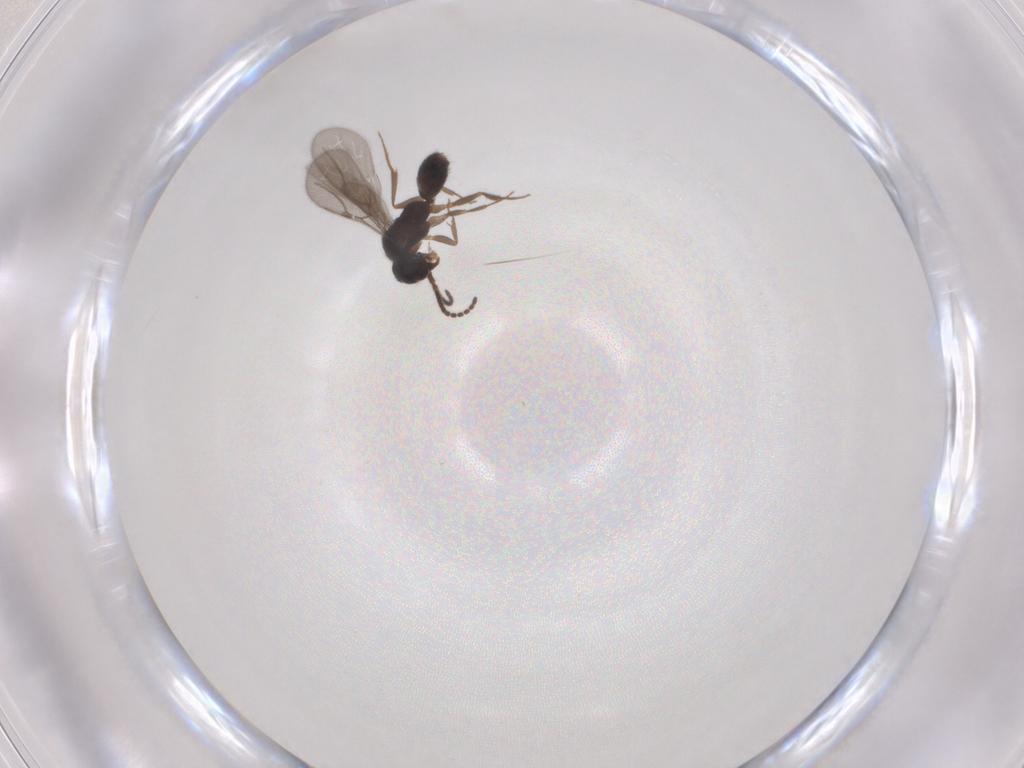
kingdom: Animalia
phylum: Arthropoda
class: Insecta
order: Hymenoptera
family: Bethylidae
